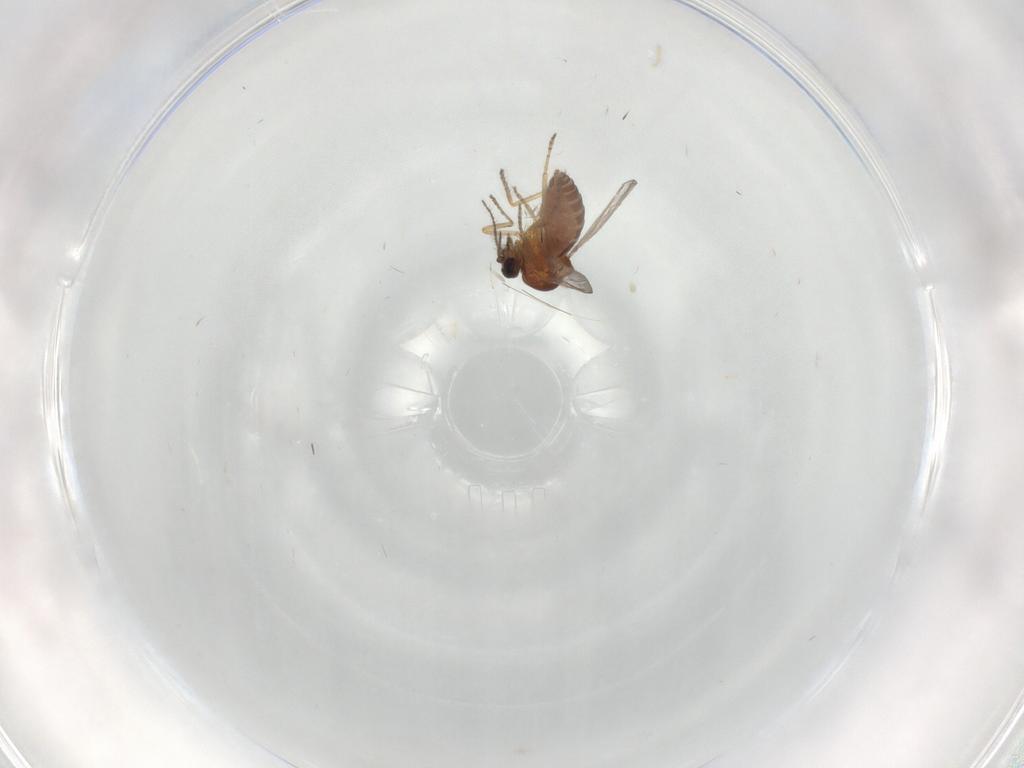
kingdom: Animalia
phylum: Arthropoda
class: Insecta
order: Diptera
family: Ceratopogonidae
